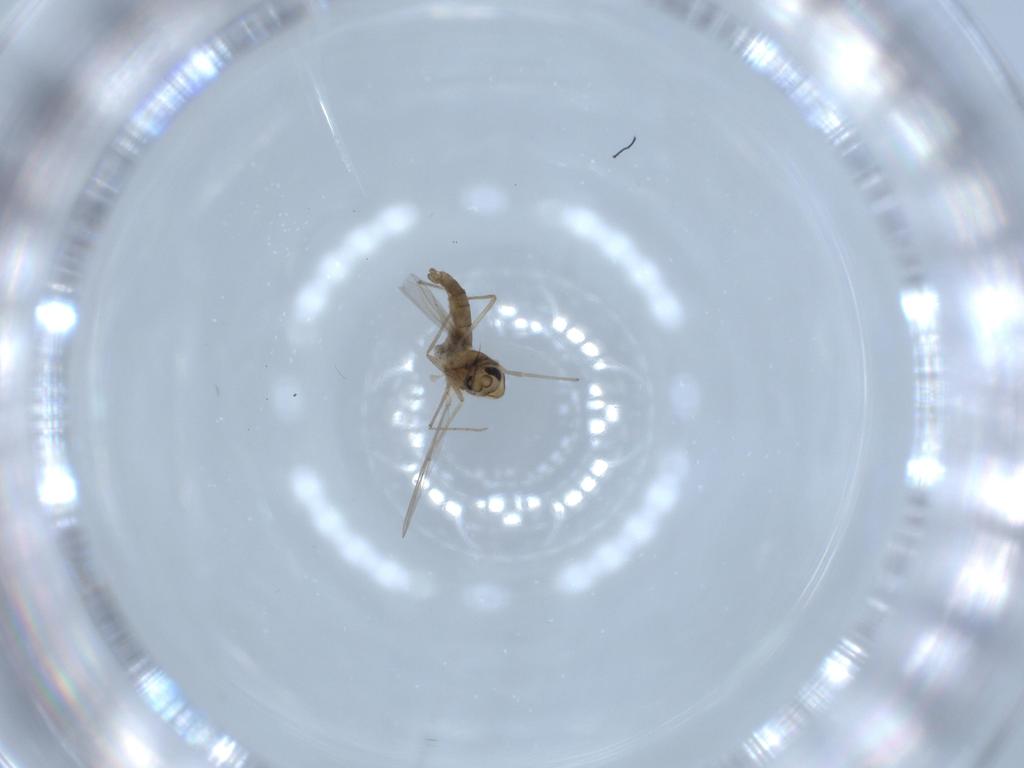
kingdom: Animalia
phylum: Arthropoda
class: Insecta
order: Diptera
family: Chironomidae
